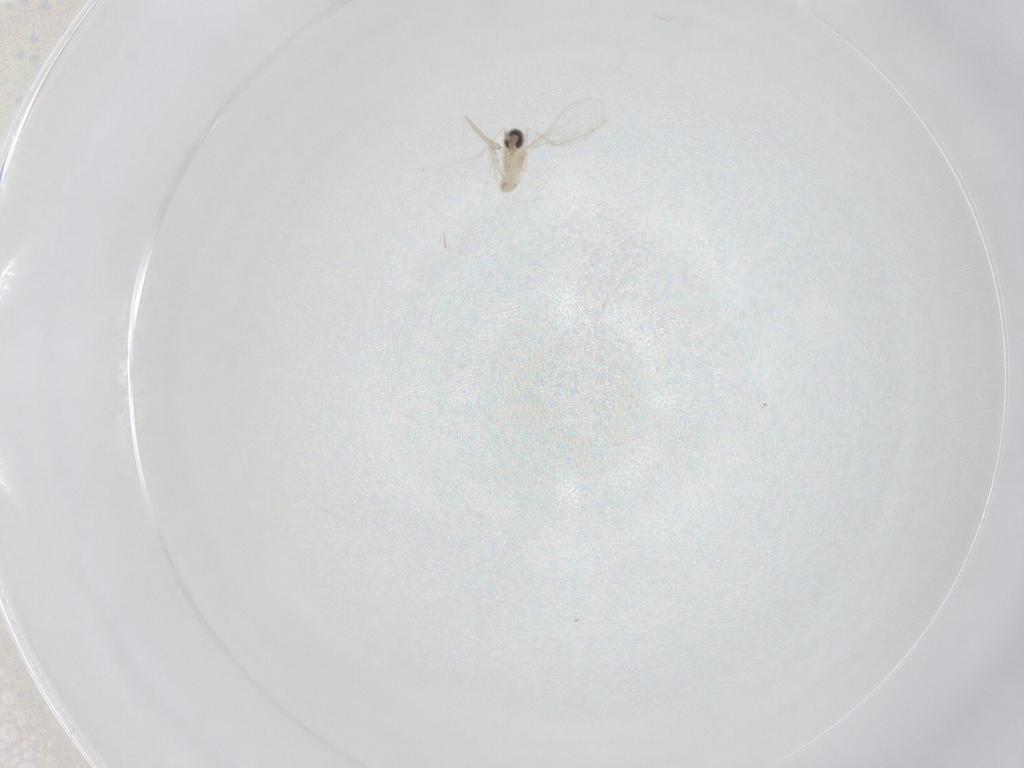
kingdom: Animalia
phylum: Arthropoda
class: Insecta
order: Diptera
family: Cecidomyiidae
